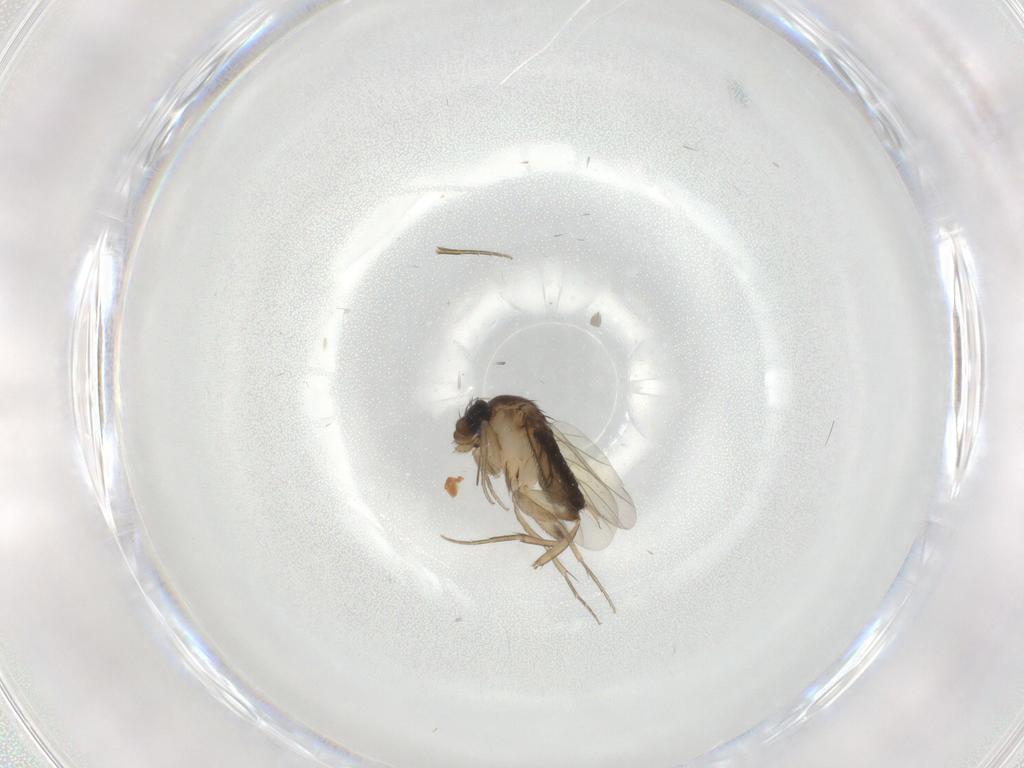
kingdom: Animalia
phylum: Arthropoda
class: Insecta
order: Diptera
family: Phoridae
